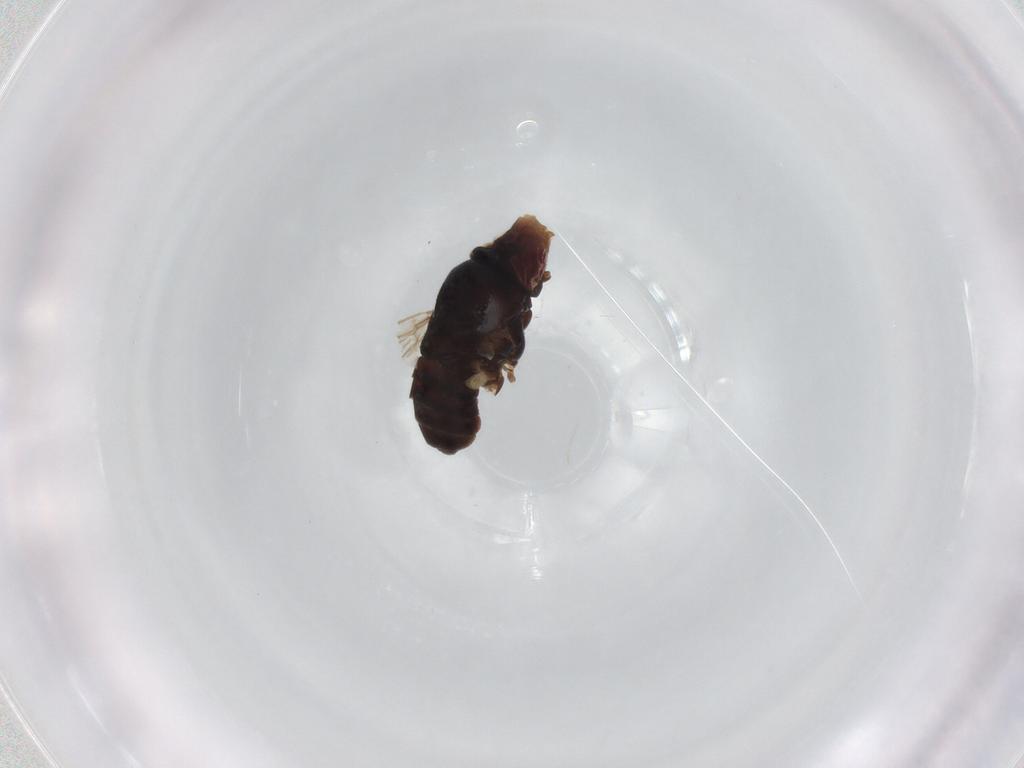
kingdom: Animalia
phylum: Arthropoda
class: Insecta
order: Diptera
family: Chloropidae
